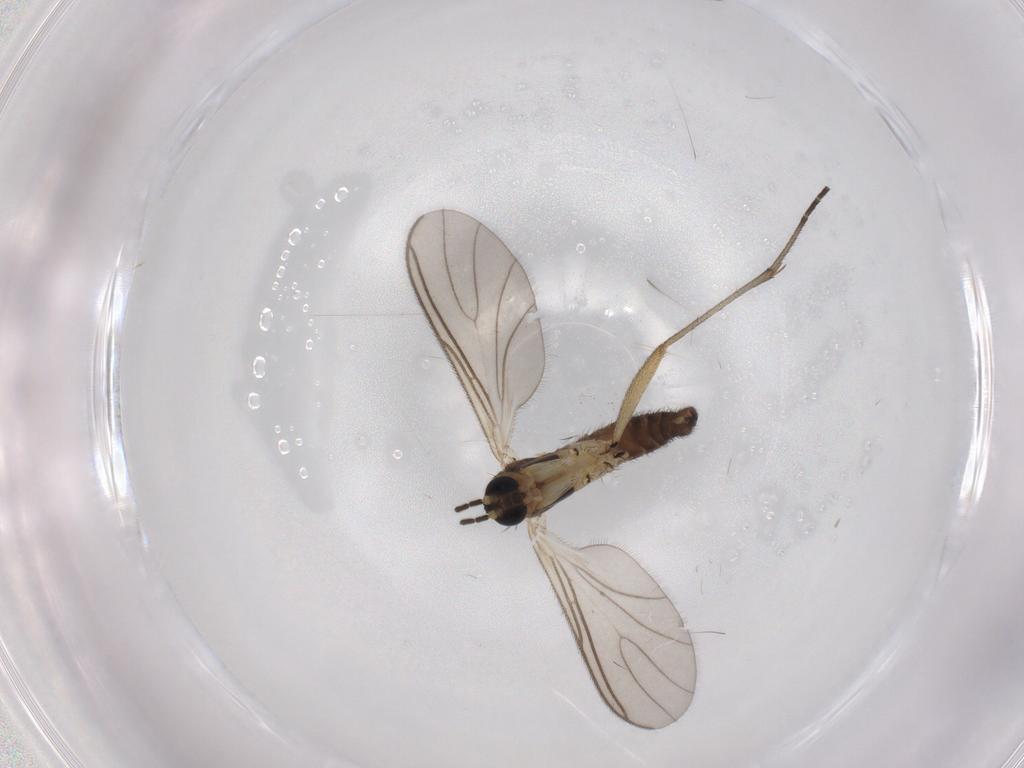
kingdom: Animalia
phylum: Arthropoda
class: Insecta
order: Diptera
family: Sciaridae
